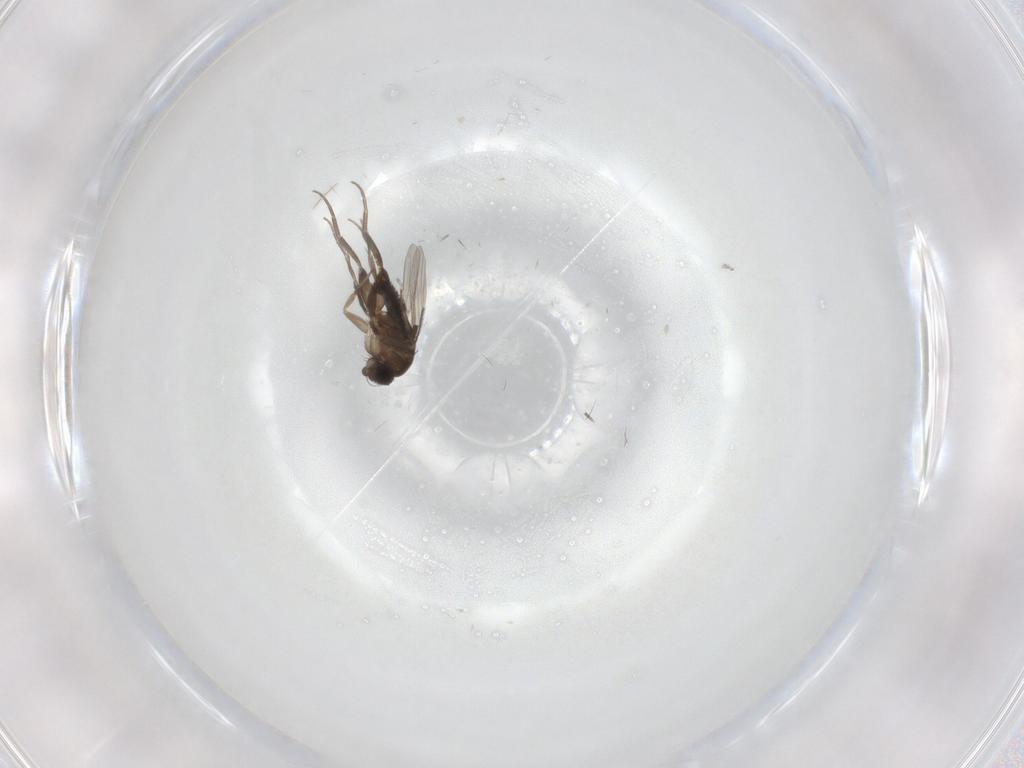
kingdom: Animalia
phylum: Arthropoda
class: Insecta
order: Diptera
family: Phoridae
